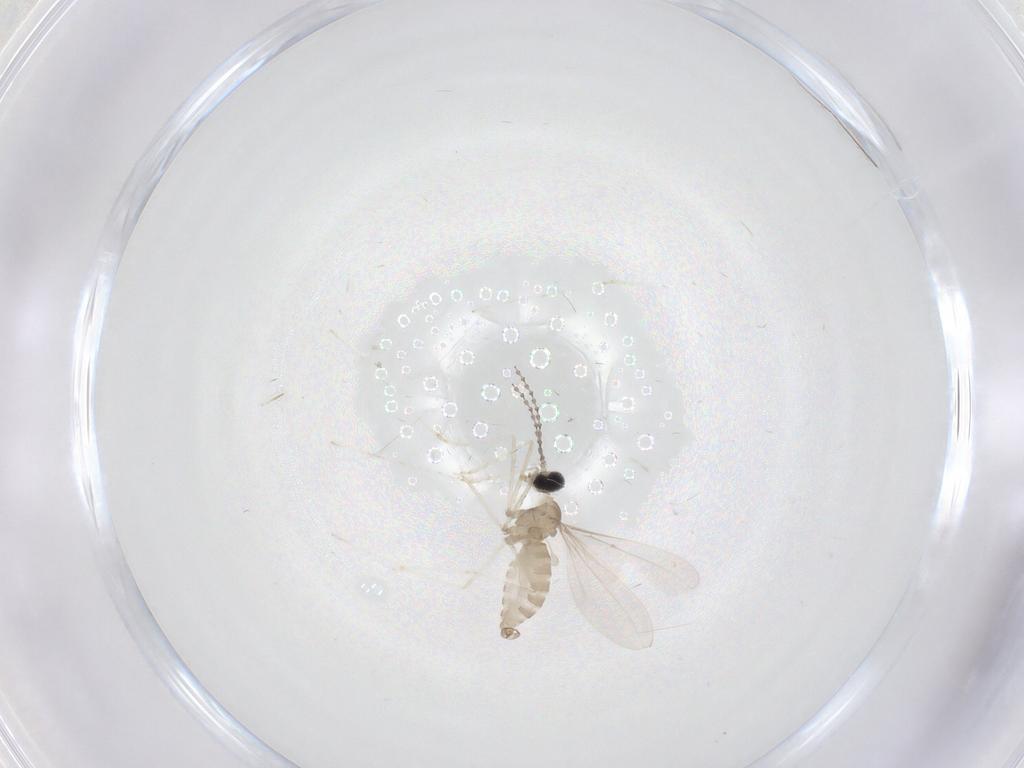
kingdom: Animalia
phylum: Arthropoda
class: Insecta
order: Diptera
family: Cecidomyiidae
